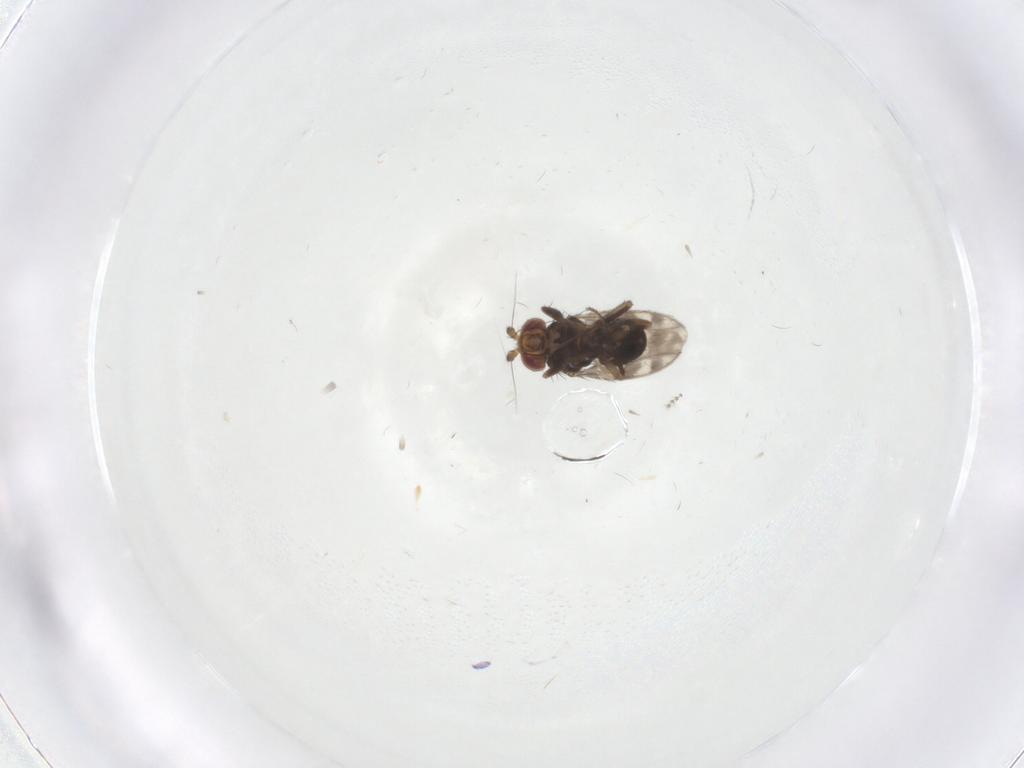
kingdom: Animalia
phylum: Arthropoda
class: Insecta
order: Diptera
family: Sphaeroceridae
